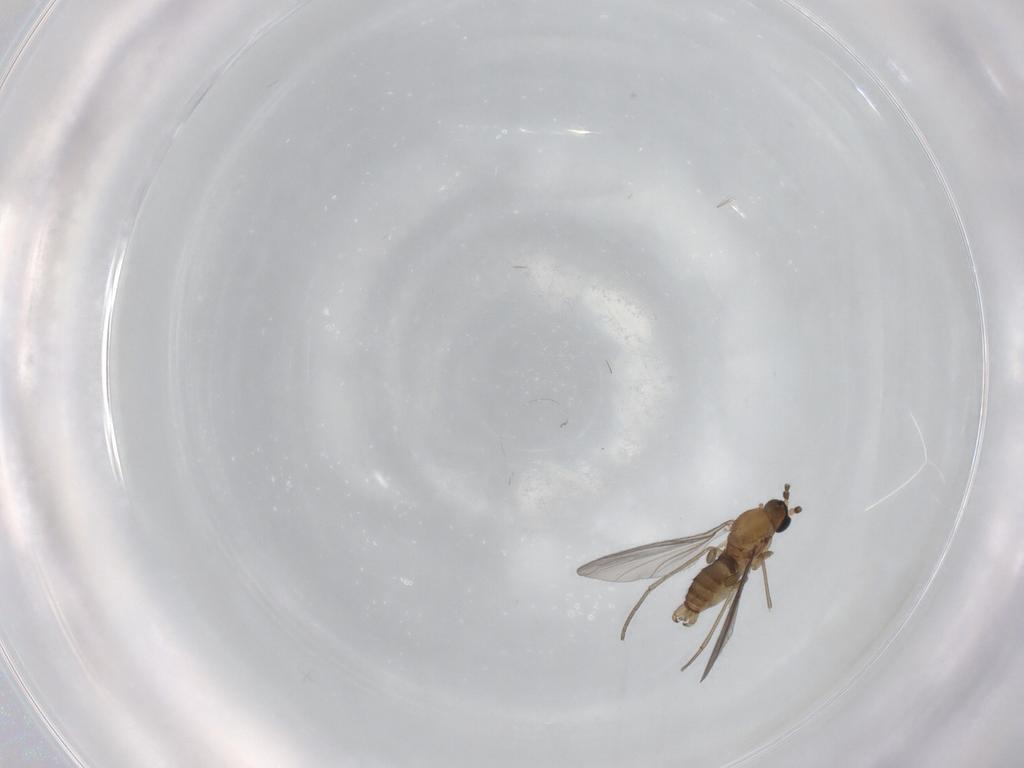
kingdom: Animalia
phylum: Arthropoda
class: Insecta
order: Diptera
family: Sciaridae
